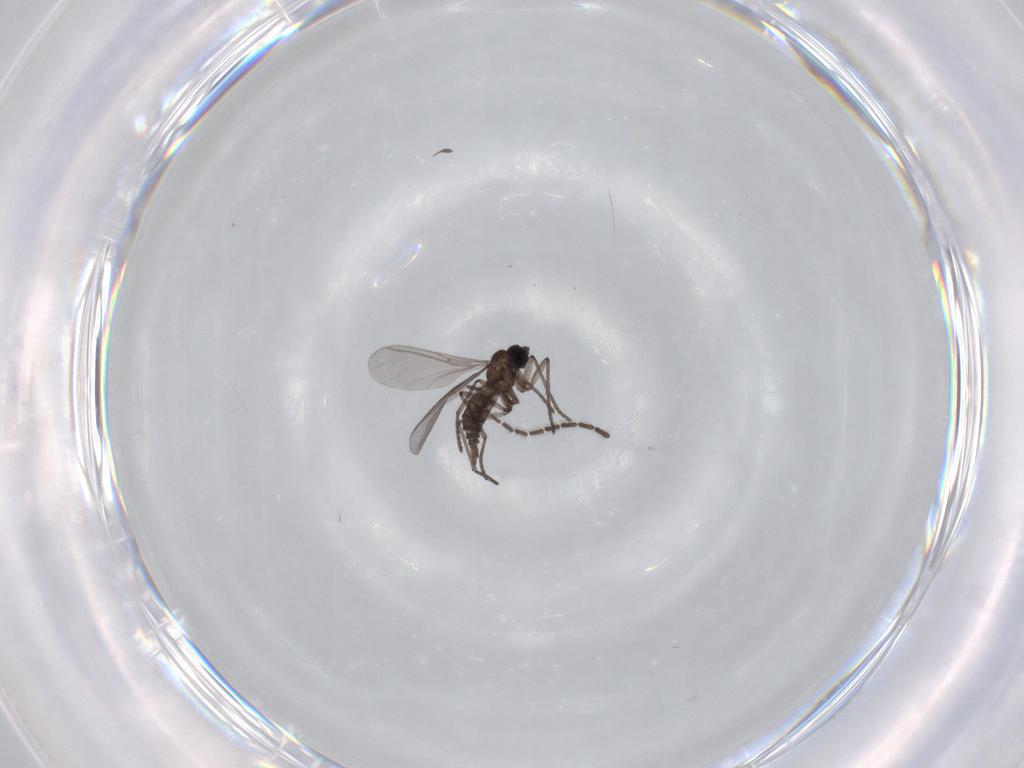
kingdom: Animalia
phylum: Arthropoda
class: Insecta
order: Diptera
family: Sciaridae
